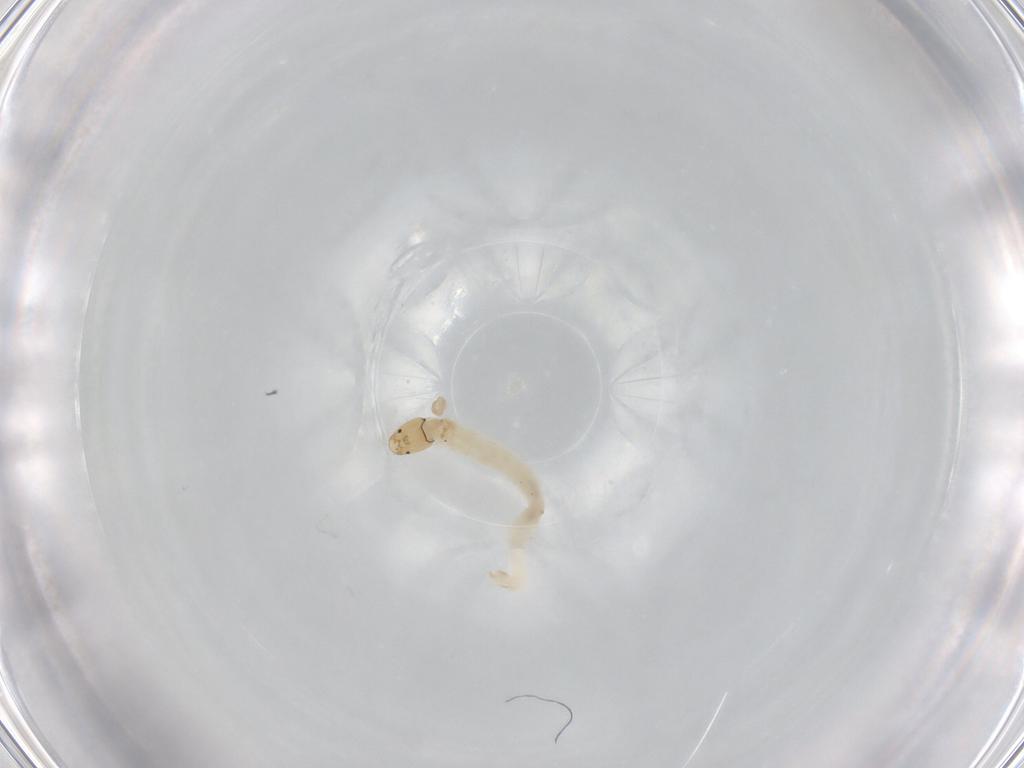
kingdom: Animalia
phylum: Arthropoda
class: Insecta
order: Diptera
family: Chironomidae
